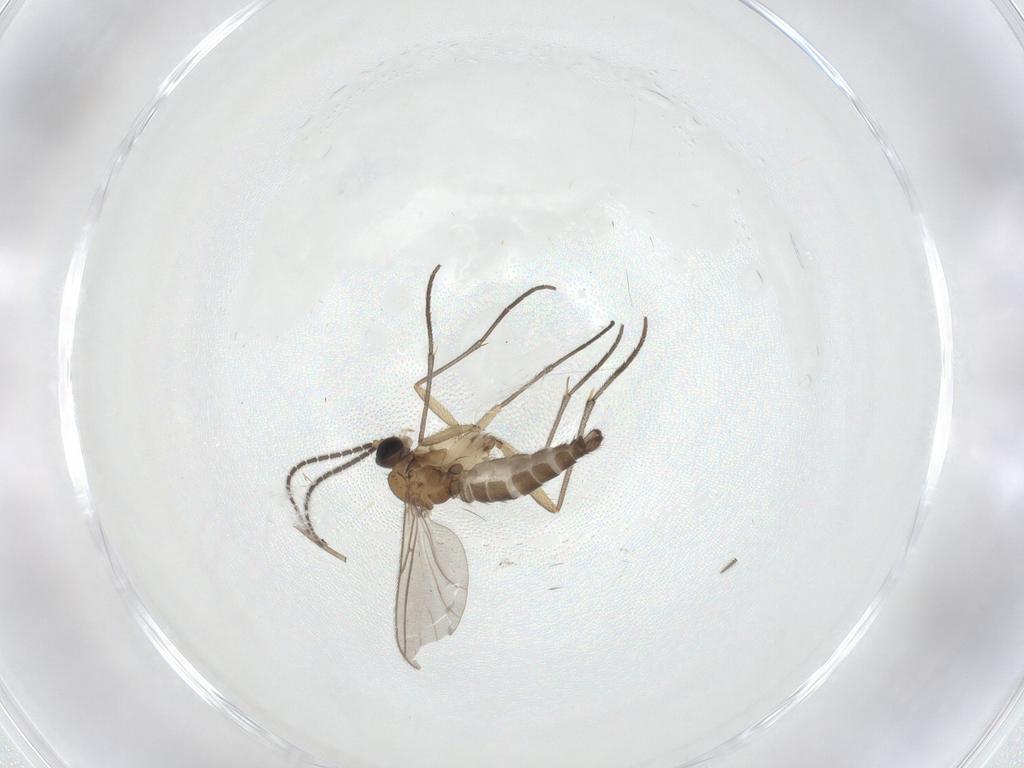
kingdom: Animalia
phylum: Arthropoda
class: Insecta
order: Diptera
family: Sciaridae
